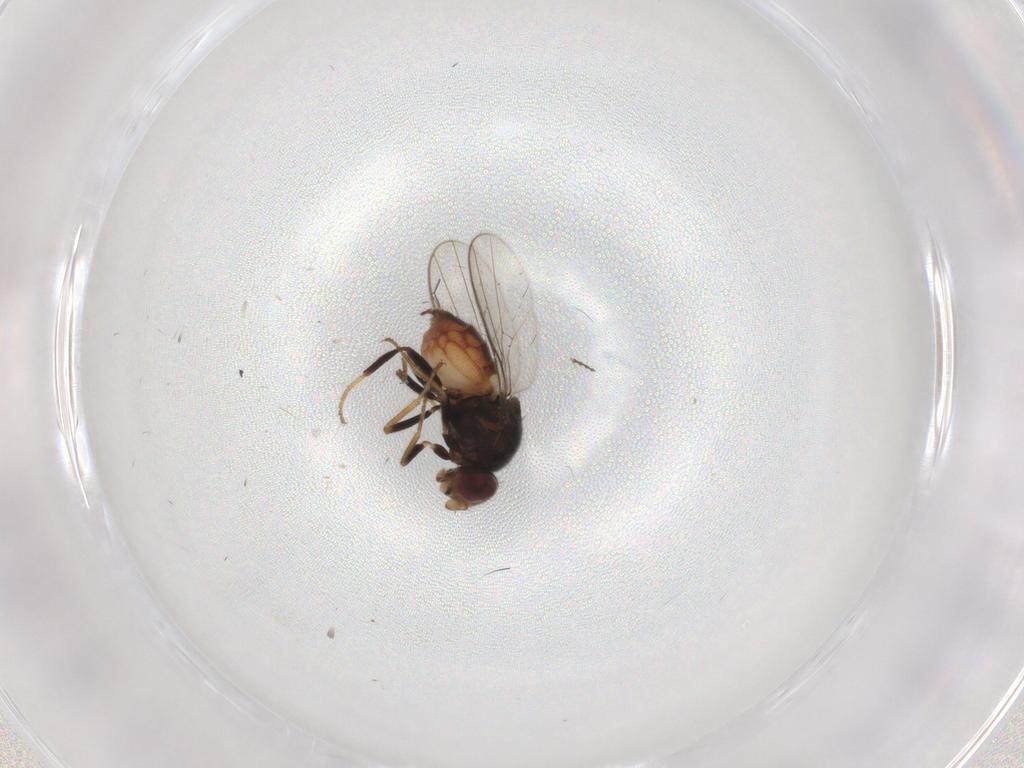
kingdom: Animalia
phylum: Arthropoda
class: Insecta
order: Diptera
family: Chloropidae
